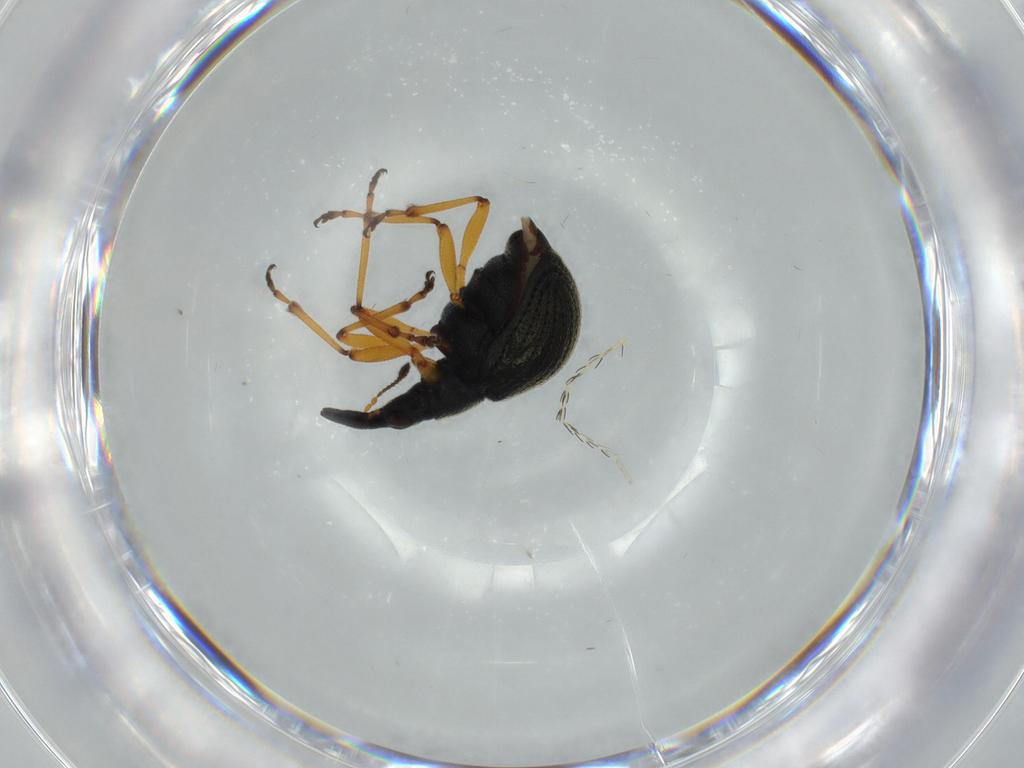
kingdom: Animalia
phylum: Arthropoda
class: Insecta
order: Coleoptera
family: Brentidae
